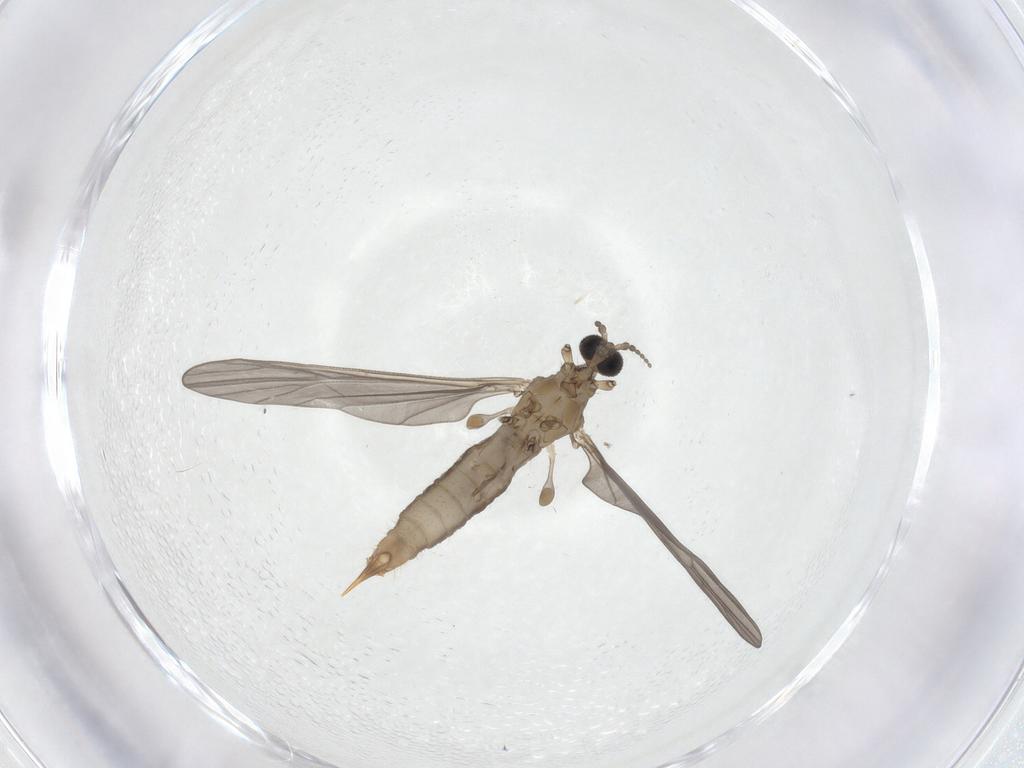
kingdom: Animalia
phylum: Arthropoda
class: Insecta
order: Diptera
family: Limoniidae
